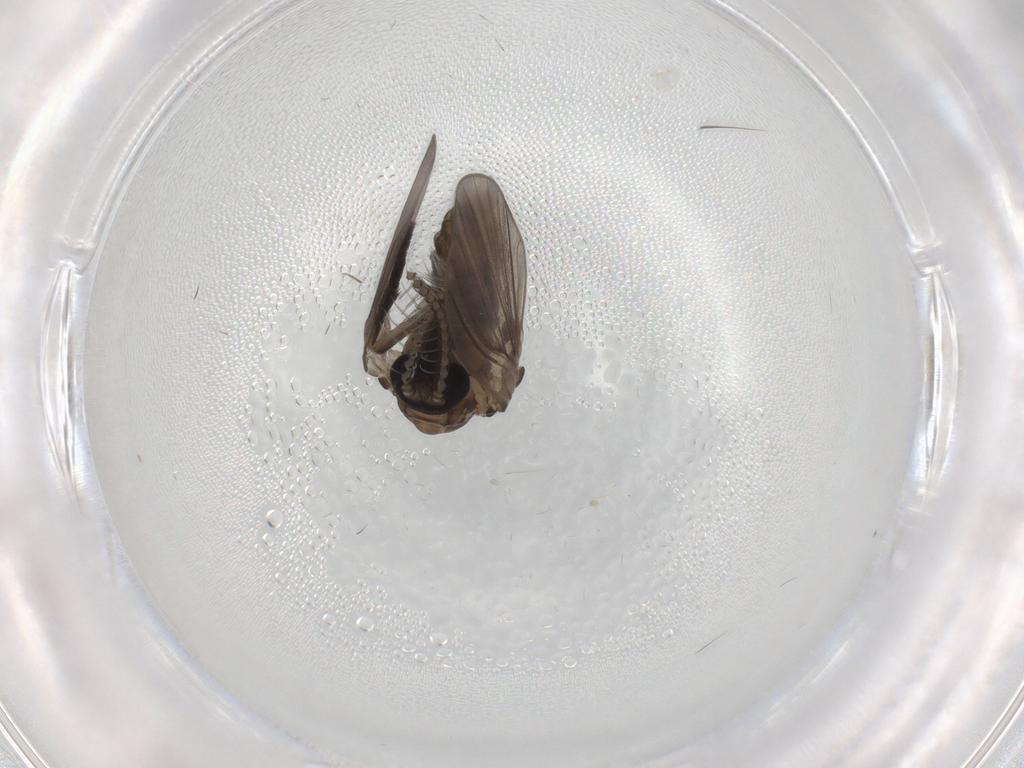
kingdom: Animalia
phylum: Arthropoda
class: Insecta
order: Diptera
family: Psychodidae
